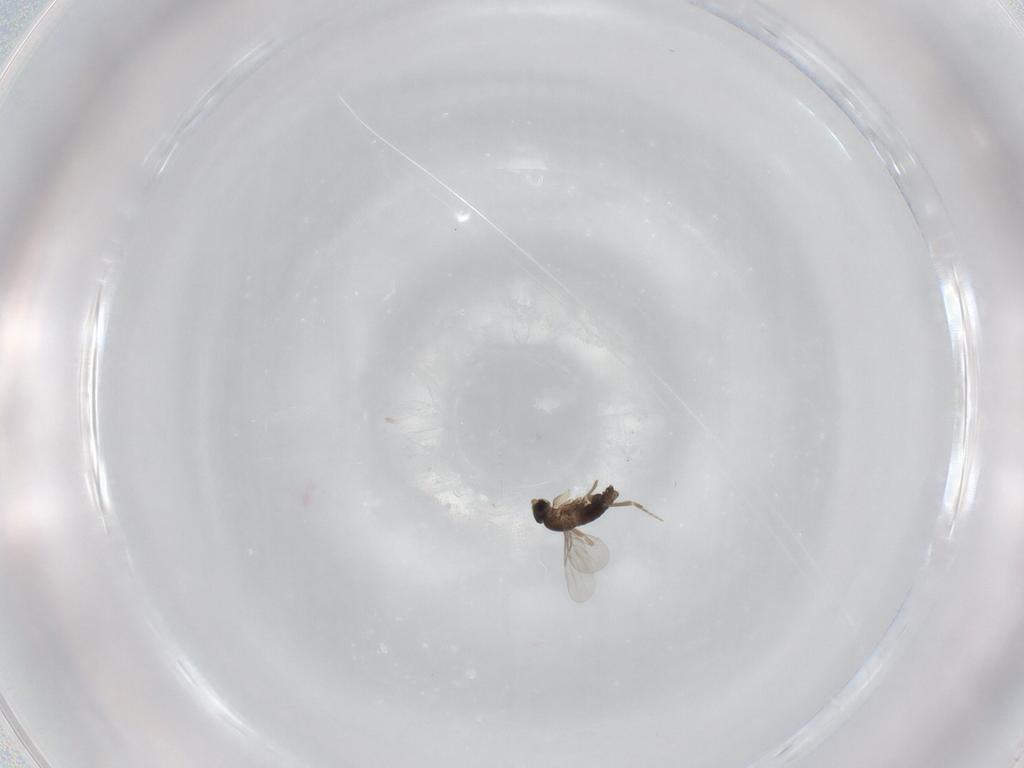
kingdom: Animalia
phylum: Arthropoda
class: Insecta
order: Diptera
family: Phoridae
